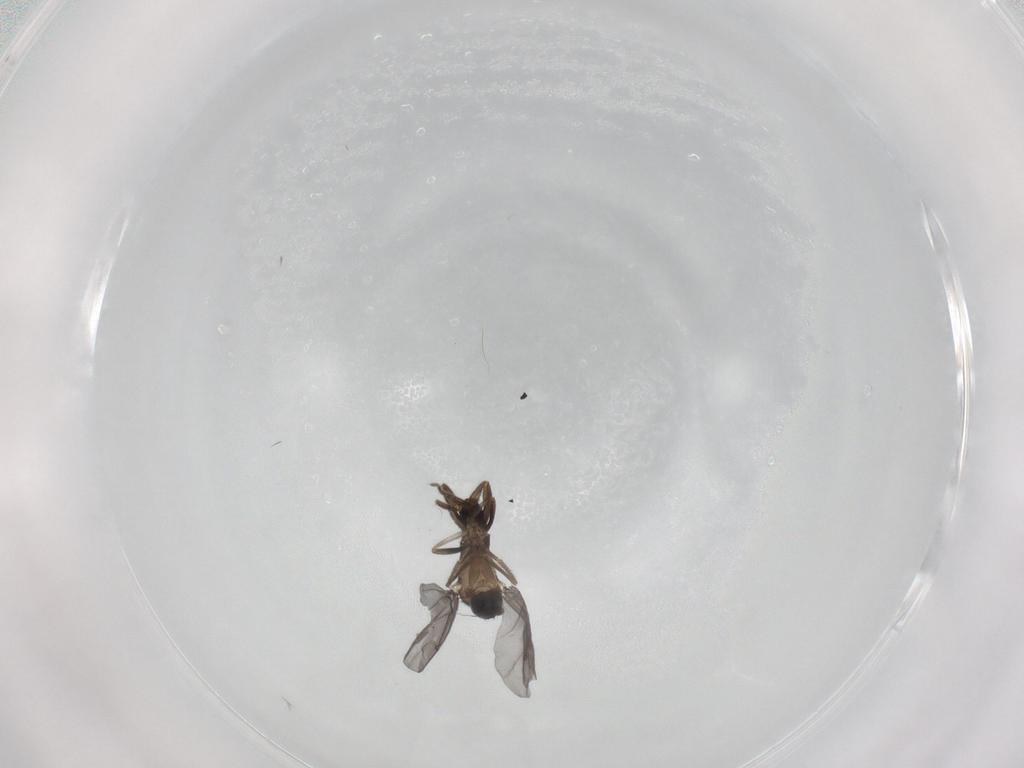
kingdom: Animalia
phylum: Arthropoda
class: Insecta
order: Diptera
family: Phoridae
